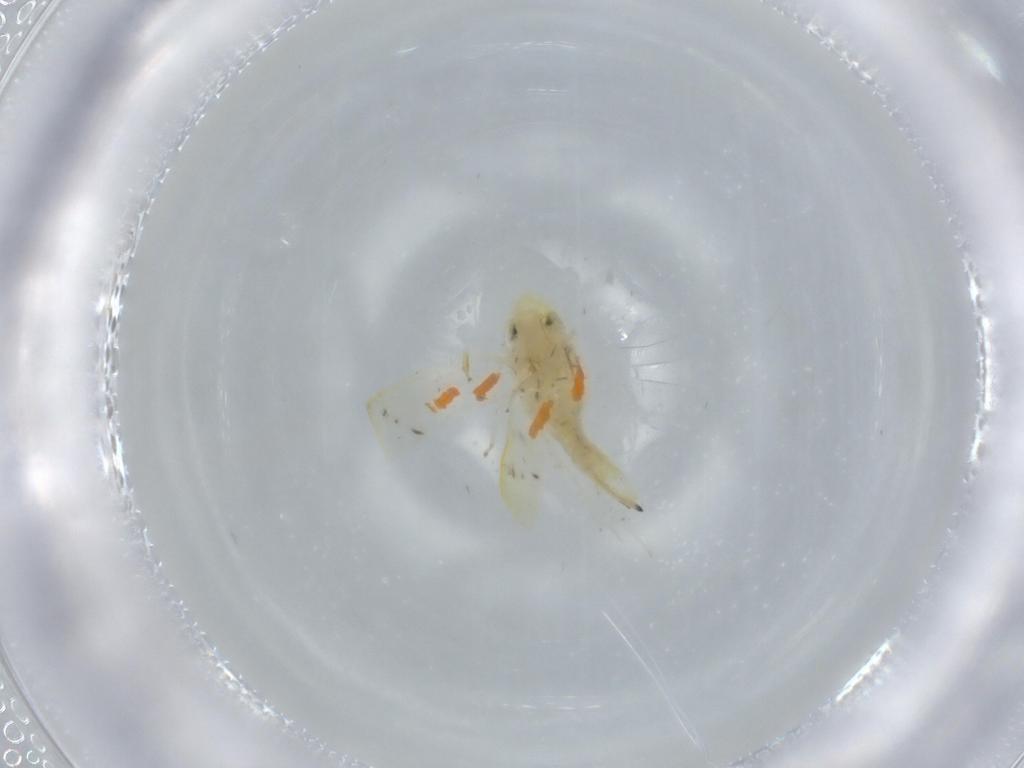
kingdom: Animalia
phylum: Arthropoda
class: Insecta
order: Hemiptera
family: Cicadellidae
